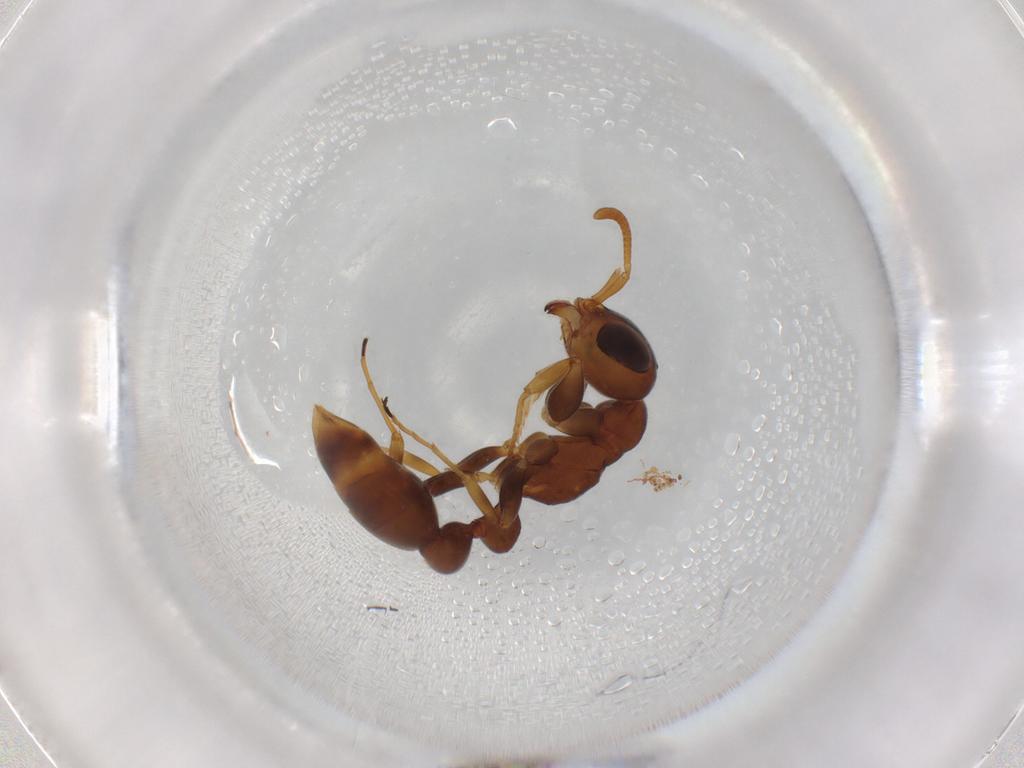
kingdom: Animalia
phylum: Arthropoda
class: Insecta
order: Hymenoptera
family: Formicidae
